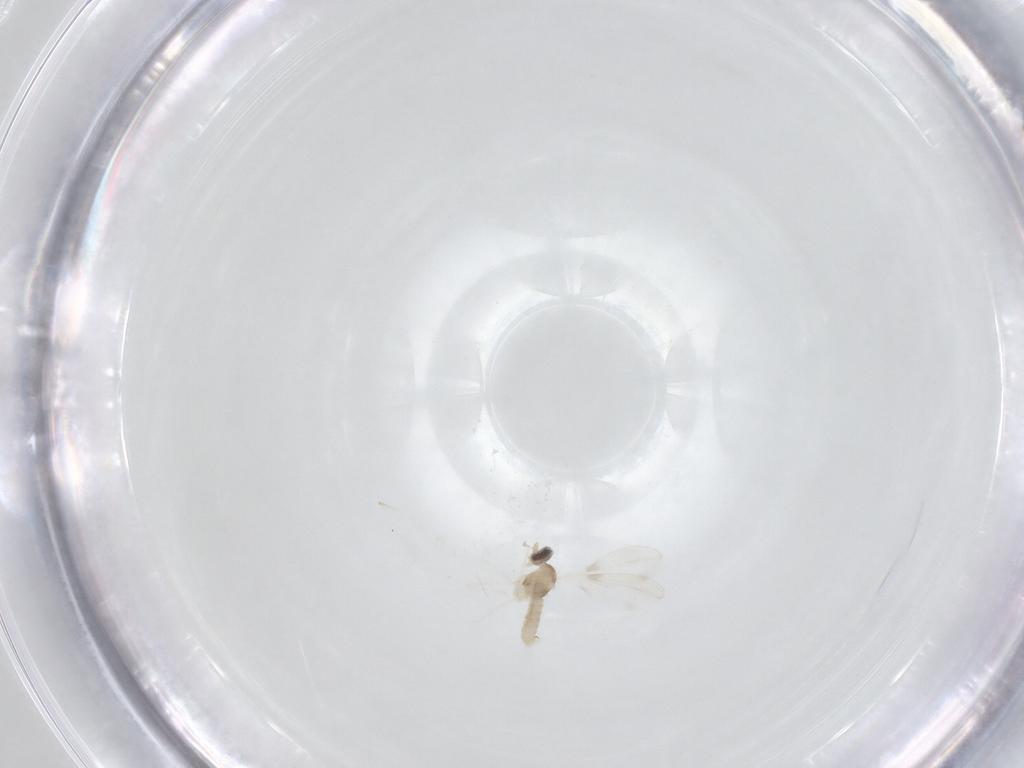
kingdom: Animalia
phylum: Arthropoda
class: Insecta
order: Diptera
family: Cecidomyiidae
